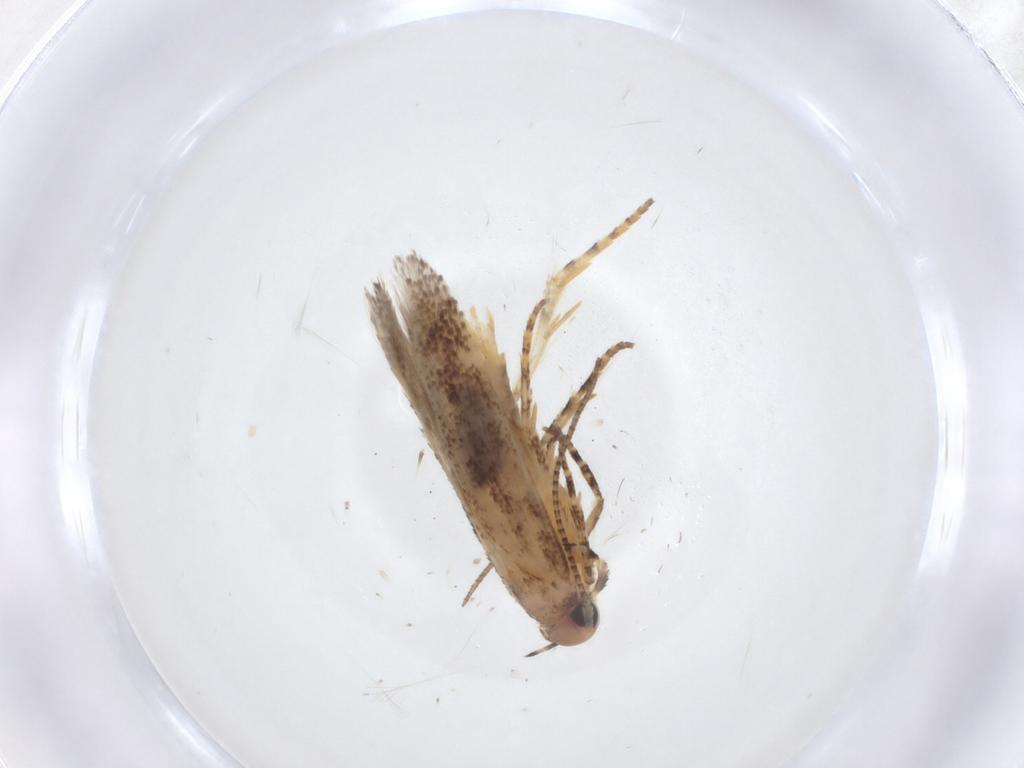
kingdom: Animalia
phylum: Arthropoda
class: Insecta
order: Lepidoptera
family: Gelechiidae
